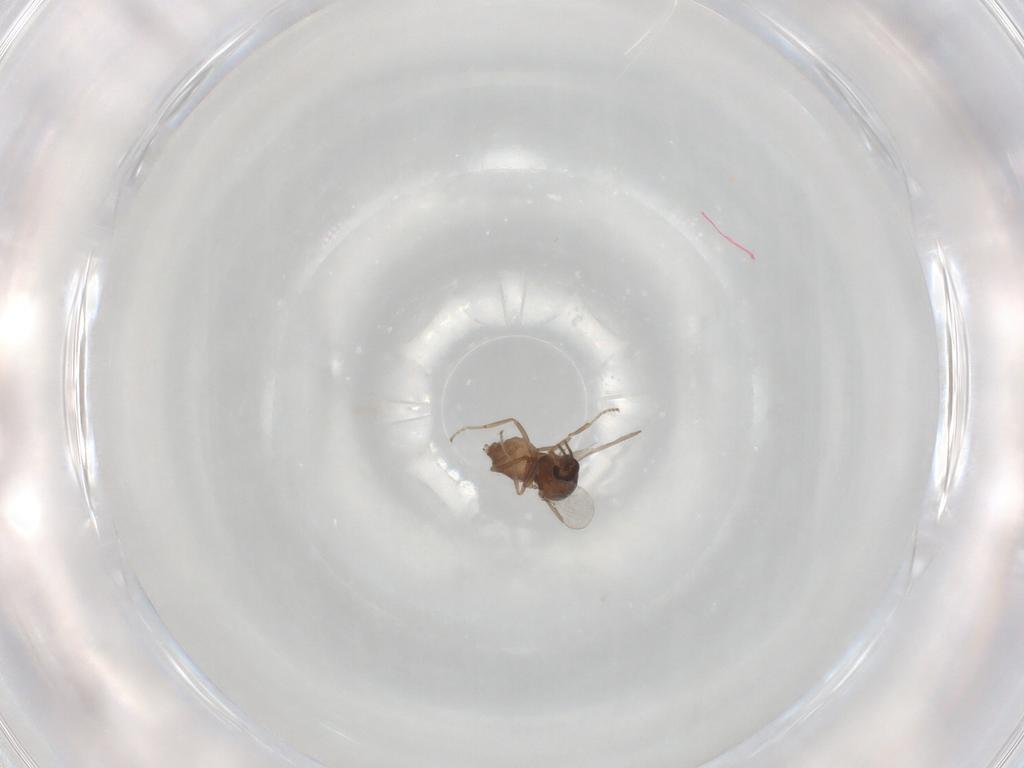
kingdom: Animalia
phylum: Arthropoda
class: Insecta
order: Diptera
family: Ceratopogonidae
